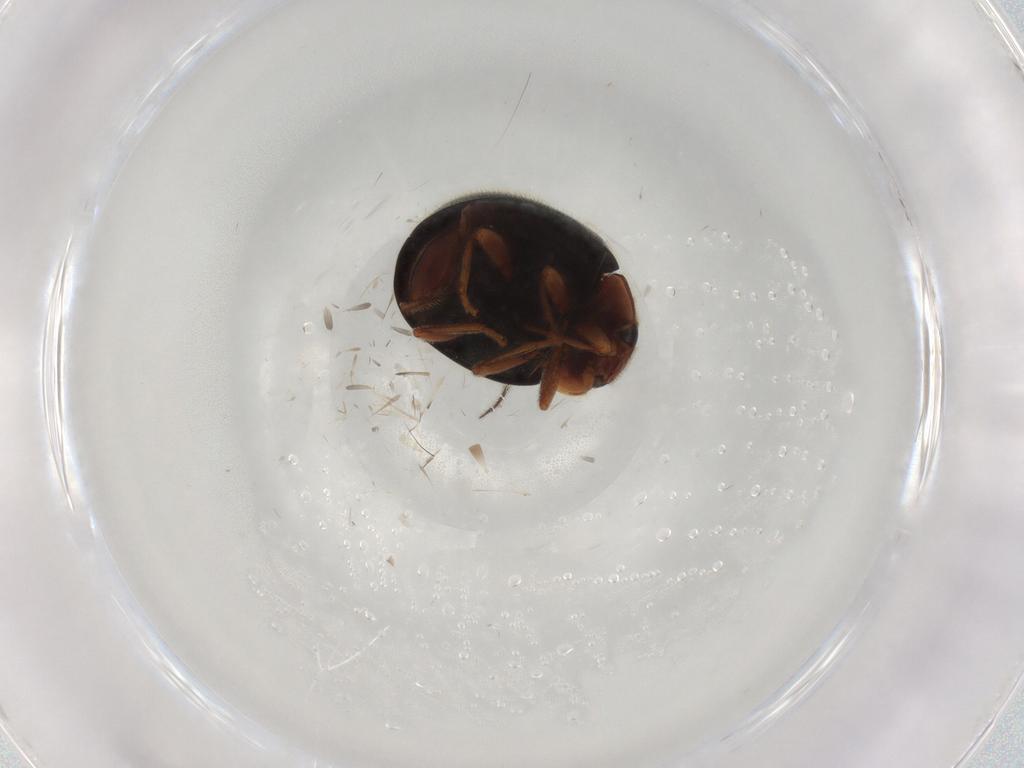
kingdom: Animalia
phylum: Arthropoda
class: Insecta
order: Coleoptera
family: Coccinellidae
